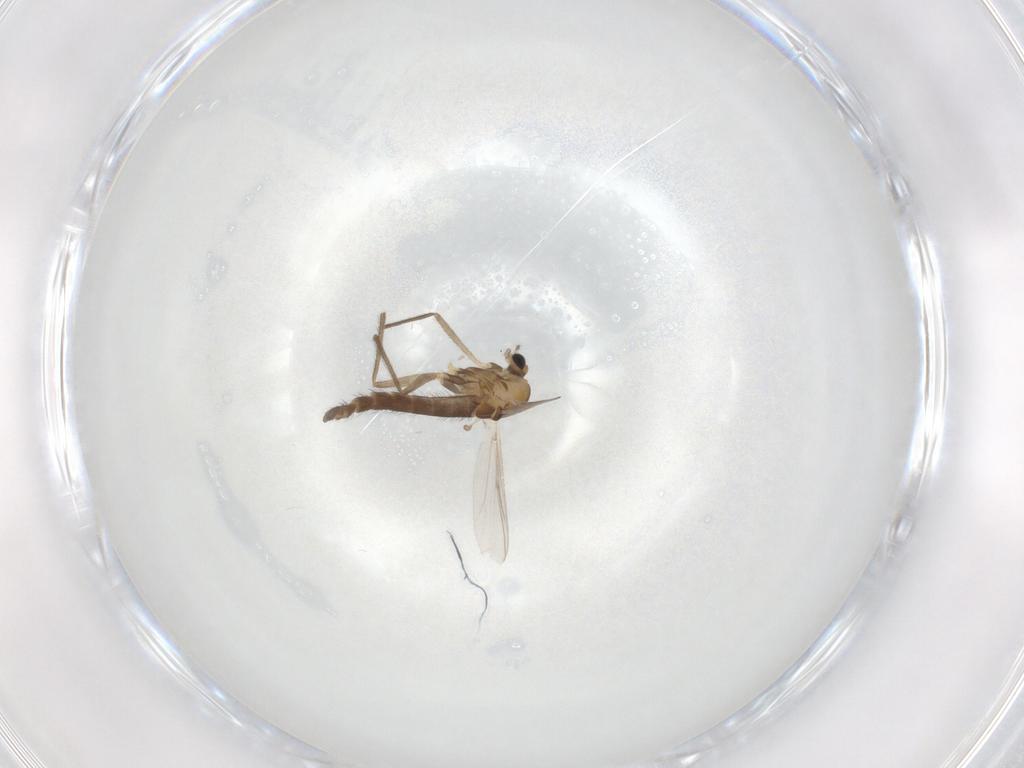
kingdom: Animalia
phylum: Arthropoda
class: Insecta
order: Diptera
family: Chironomidae
